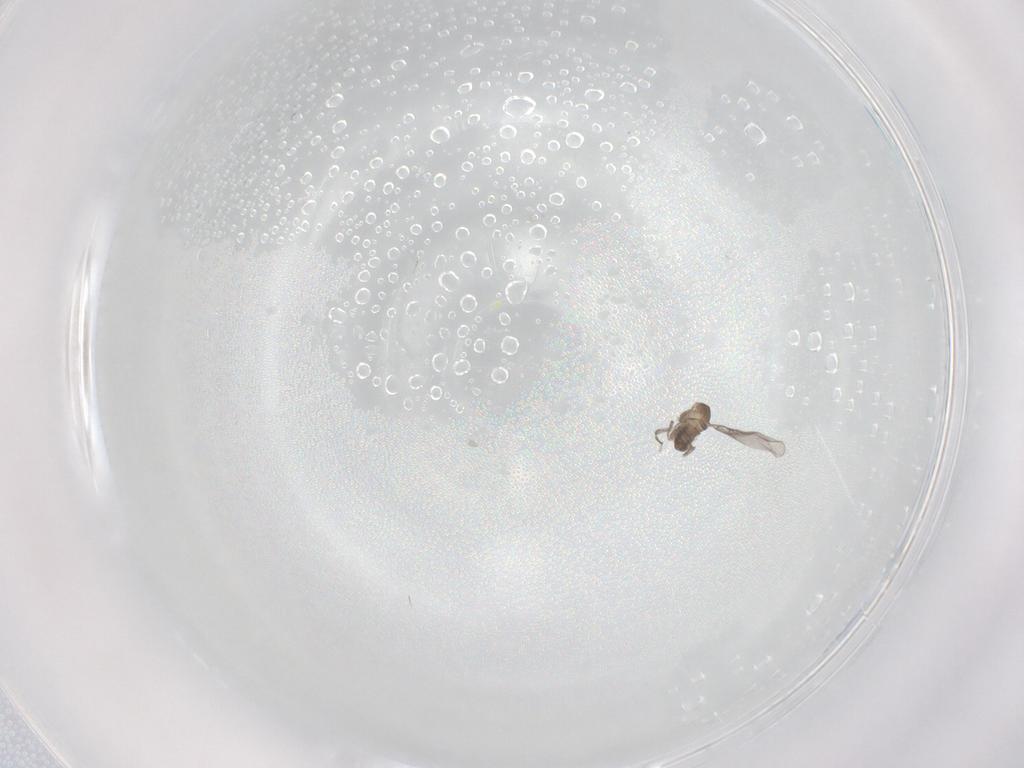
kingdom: Animalia
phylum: Arthropoda
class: Insecta
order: Diptera
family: Cecidomyiidae
